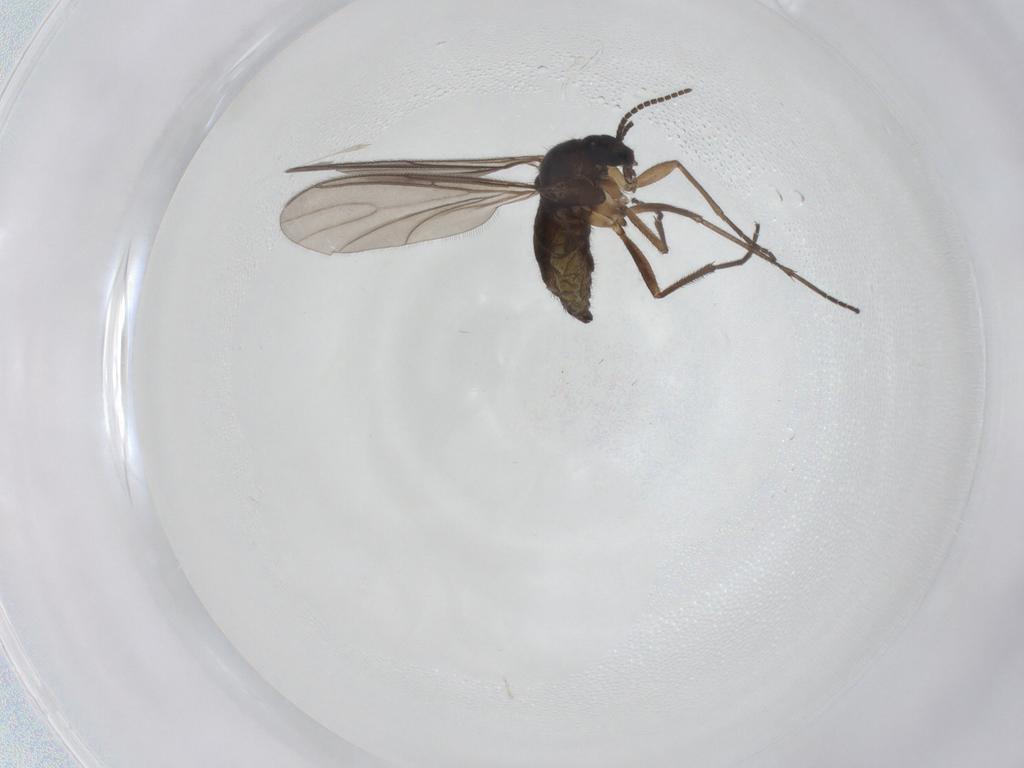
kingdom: Animalia
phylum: Arthropoda
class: Insecta
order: Diptera
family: Sciaridae
